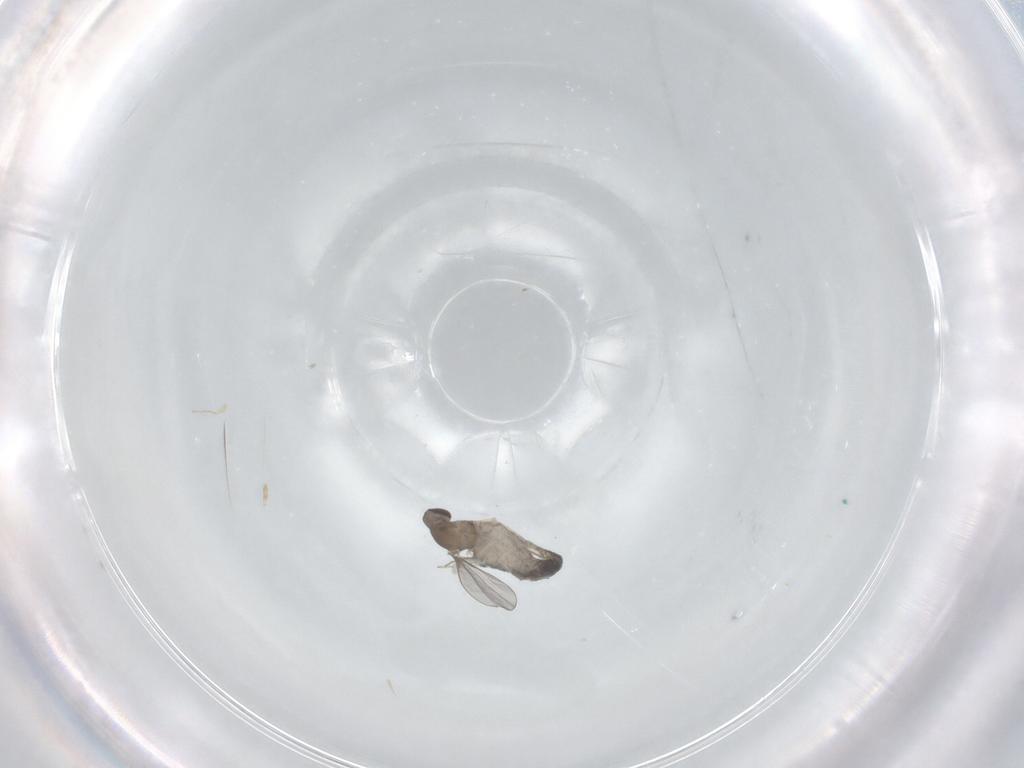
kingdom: Animalia
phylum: Arthropoda
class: Insecta
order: Diptera
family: Cecidomyiidae
